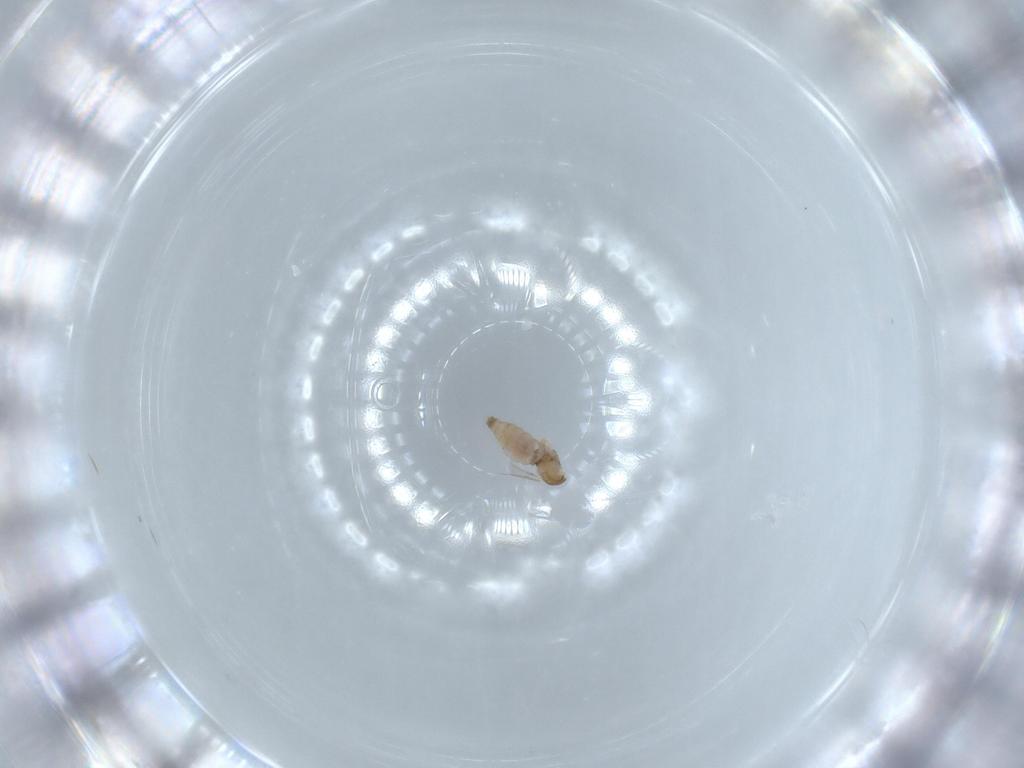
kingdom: Animalia
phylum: Arthropoda
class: Insecta
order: Diptera
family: Cecidomyiidae
